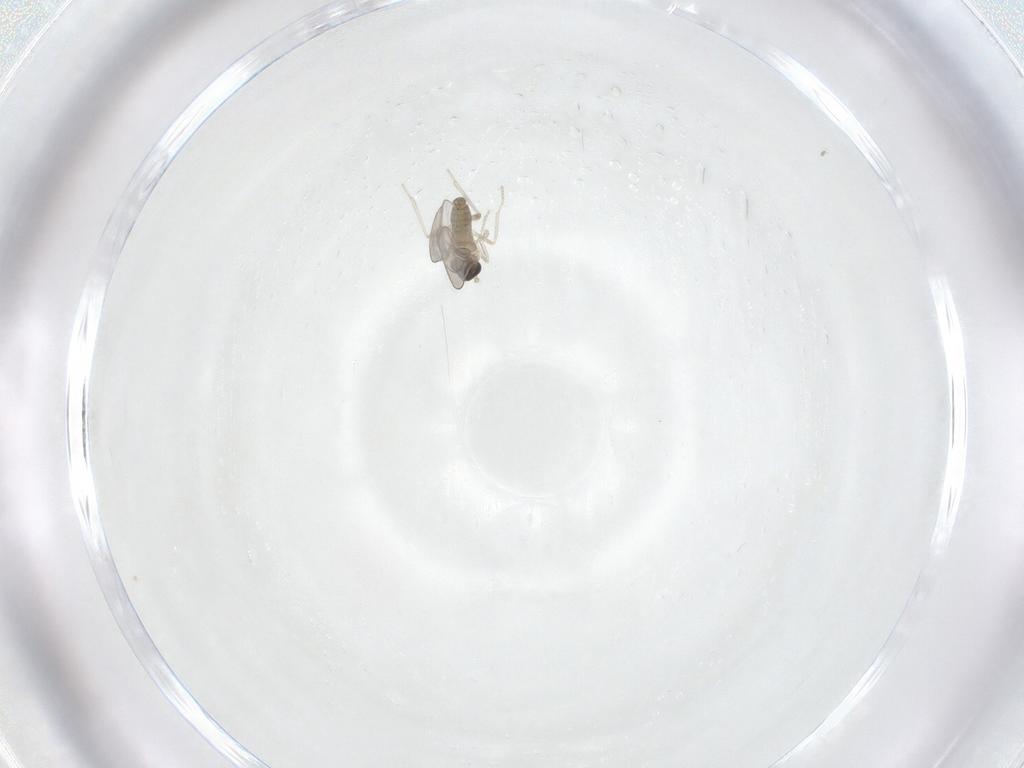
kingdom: Animalia
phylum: Arthropoda
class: Insecta
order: Diptera
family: Cecidomyiidae
